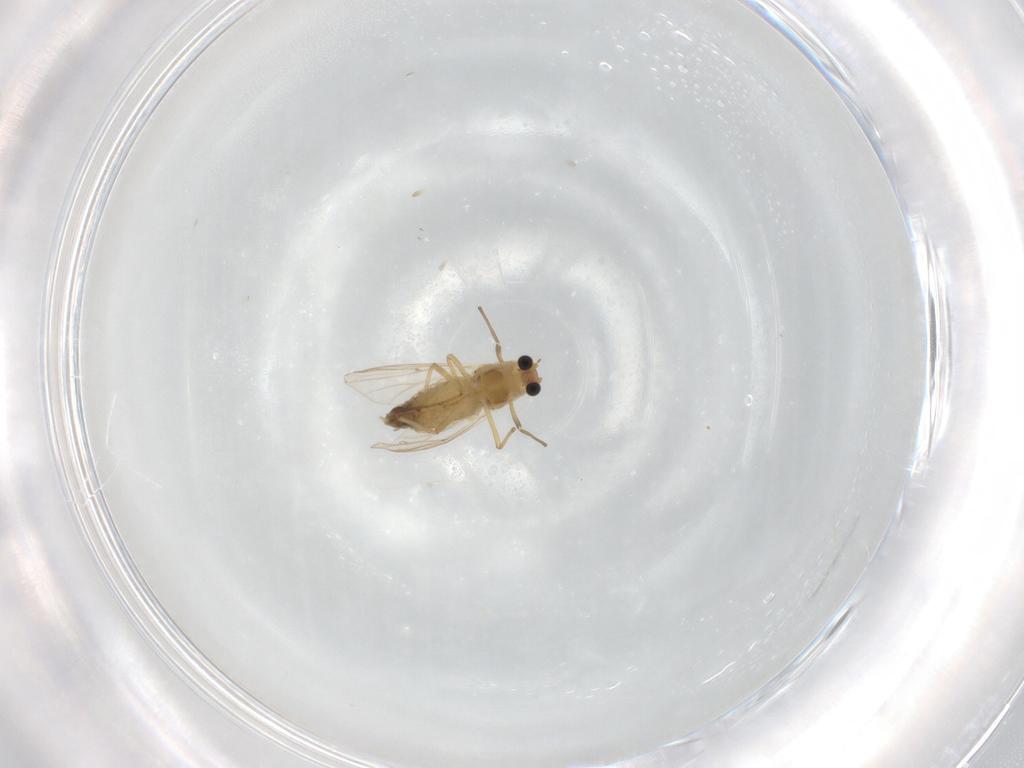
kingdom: Animalia
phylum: Arthropoda
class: Insecta
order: Diptera
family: Chironomidae
